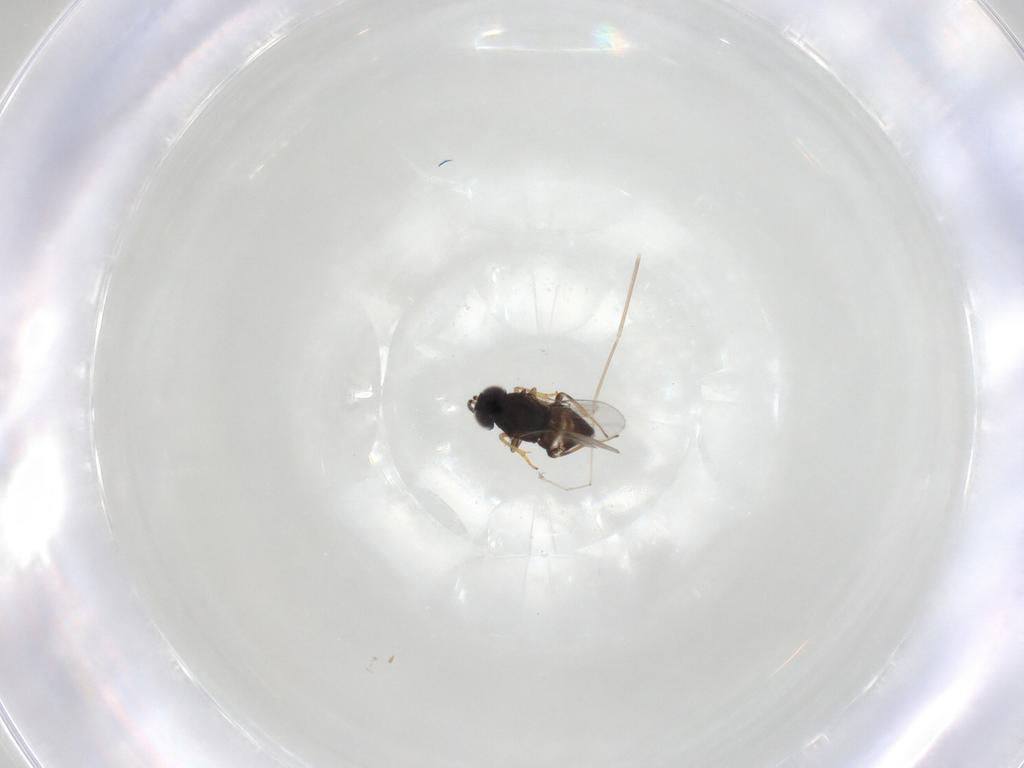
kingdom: Animalia
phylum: Arthropoda
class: Insecta
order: Hymenoptera
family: Formicidae
